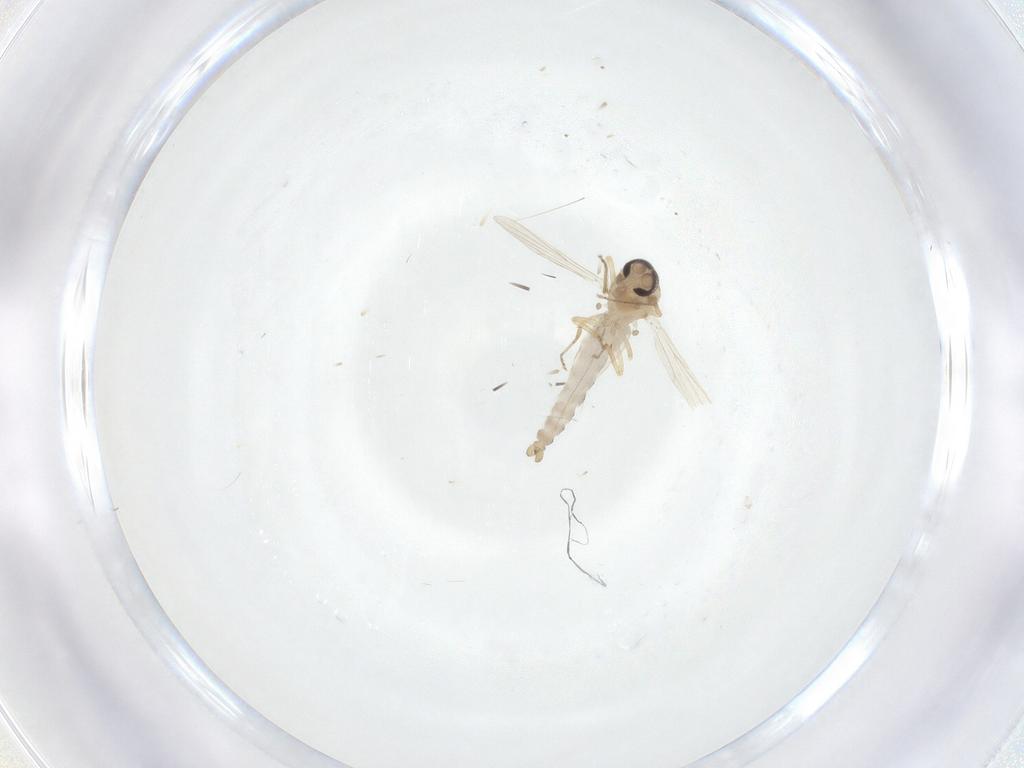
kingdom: Animalia
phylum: Arthropoda
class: Insecta
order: Diptera
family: Ceratopogonidae
